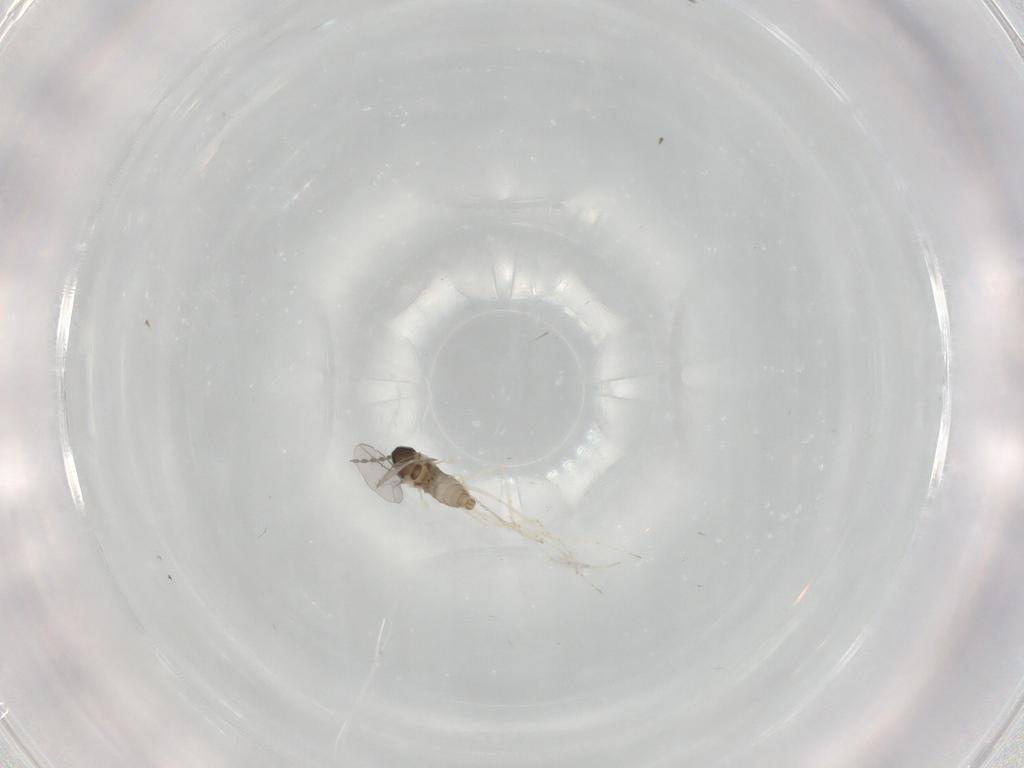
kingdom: Animalia
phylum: Arthropoda
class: Insecta
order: Diptera
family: Cecidomyiidae
